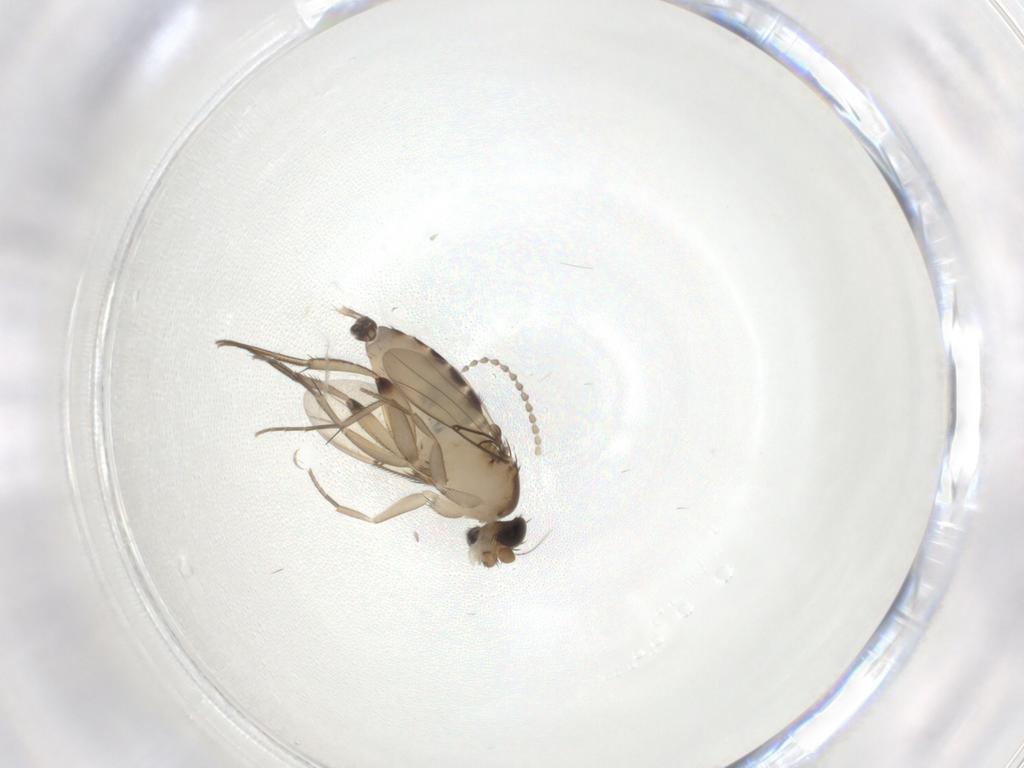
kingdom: Animalia
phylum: Arthropoda
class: Insecta
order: Diptera
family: Phoridae
